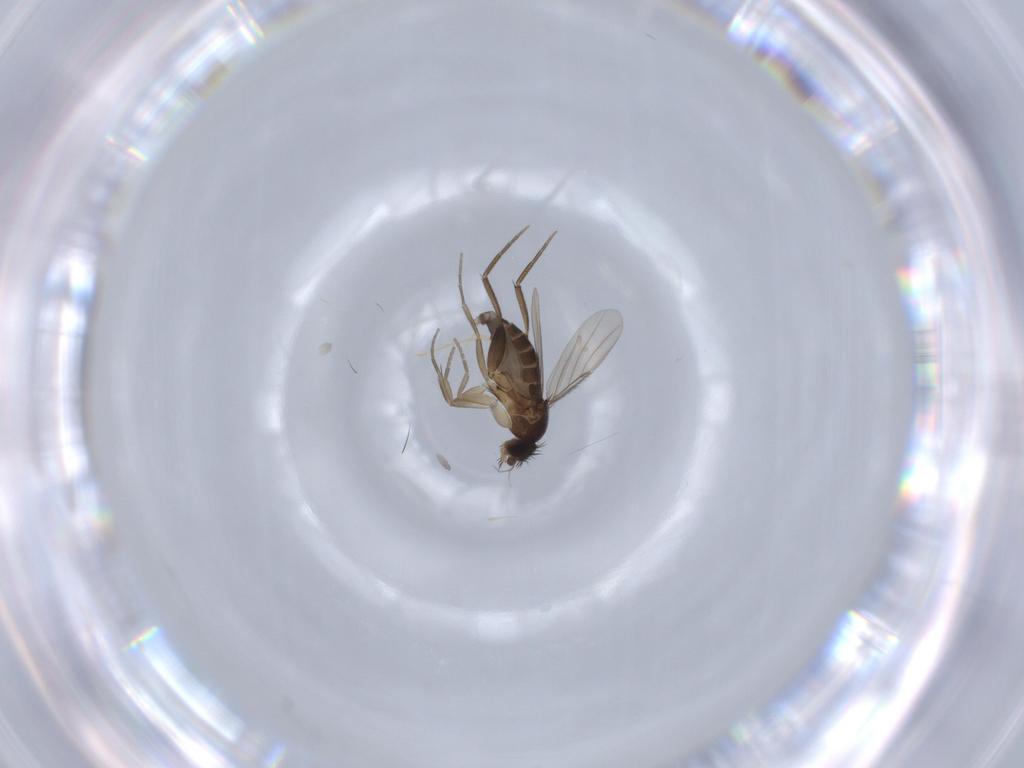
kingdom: Animalia
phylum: Arthropoda
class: Insecta
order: Diptera
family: Phoridae
